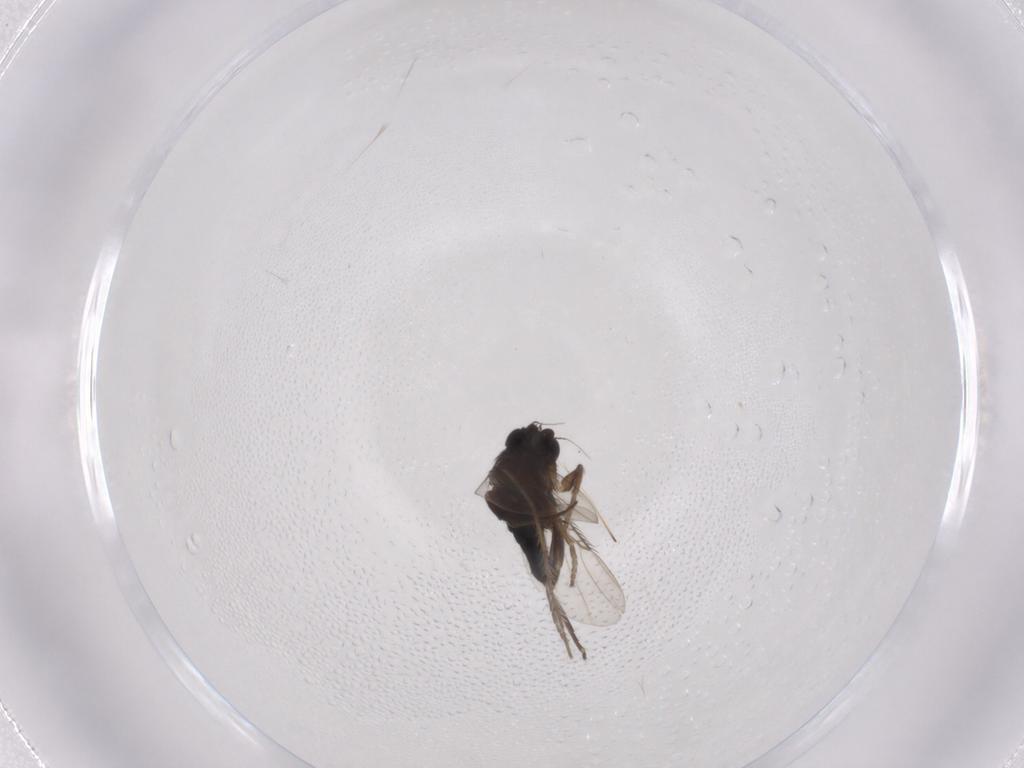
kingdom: Animalia
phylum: Arthropoda
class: Insecta
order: Diptera
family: Phoridae
